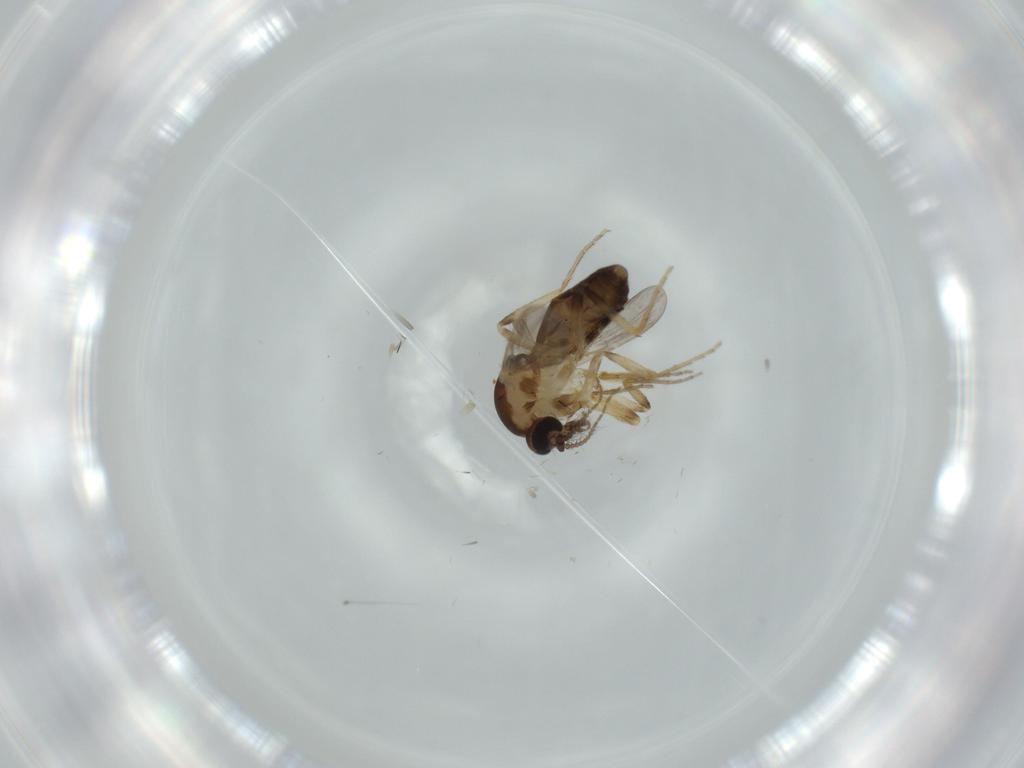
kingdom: Animalia
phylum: Arthropoda
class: Insecta
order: Diptera
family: Ceratopogonidae
